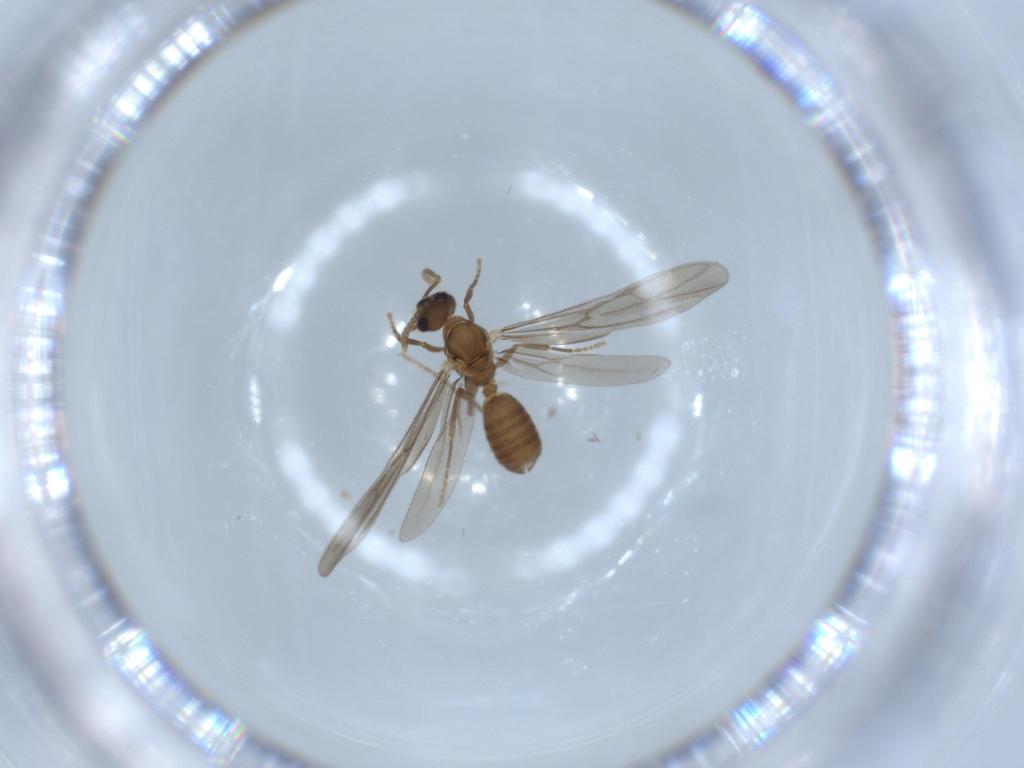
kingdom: Animalia
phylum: Arthropoda
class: Insecta
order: Hymenoptera
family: Formicidae
